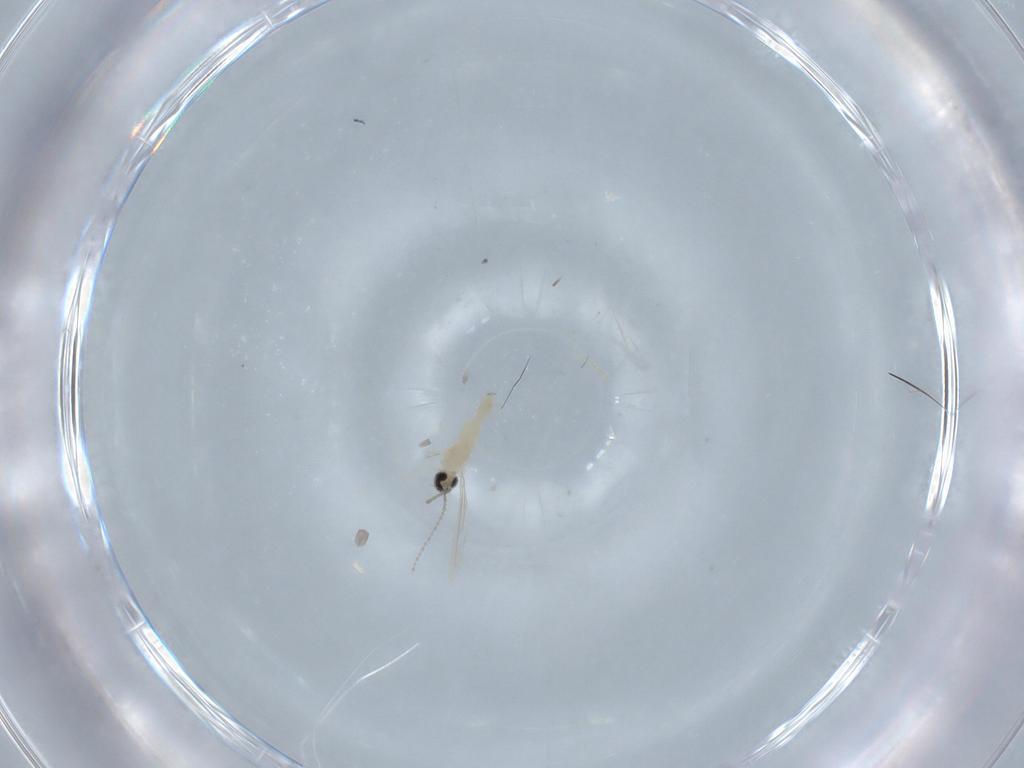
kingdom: Animalia
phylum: Arthropoda
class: Insecta
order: Diptera
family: Cecidomyiidae
